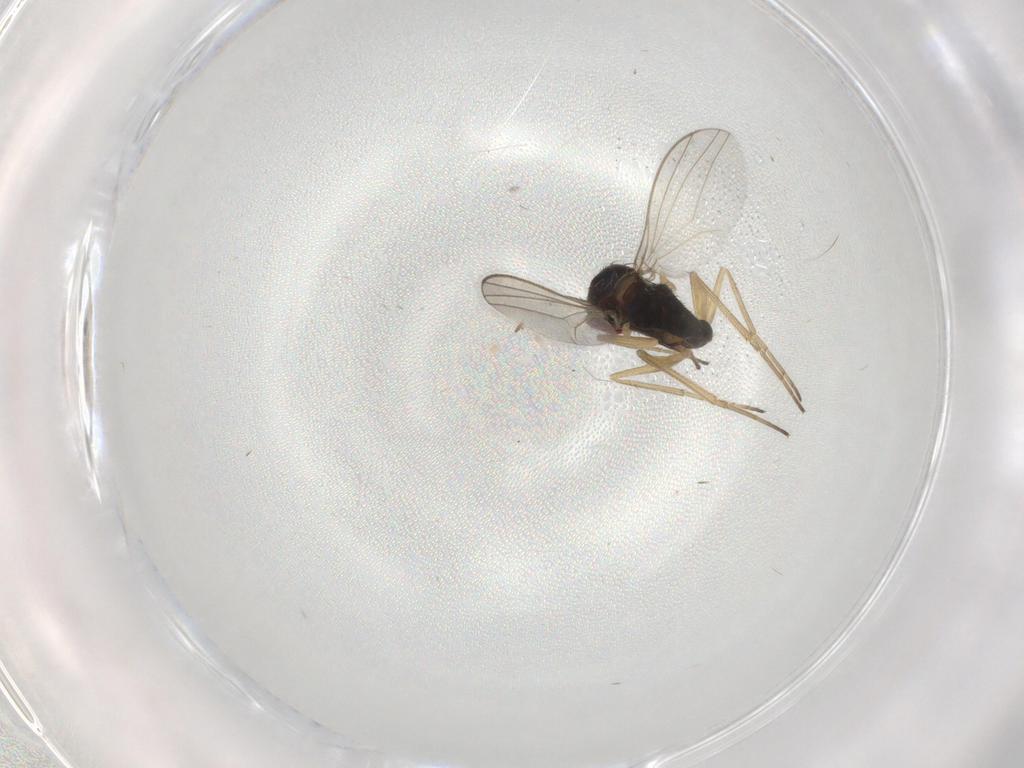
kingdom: Animalia
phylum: Arthropoda
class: Insecta
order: Diptera
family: Dolichopodidae
